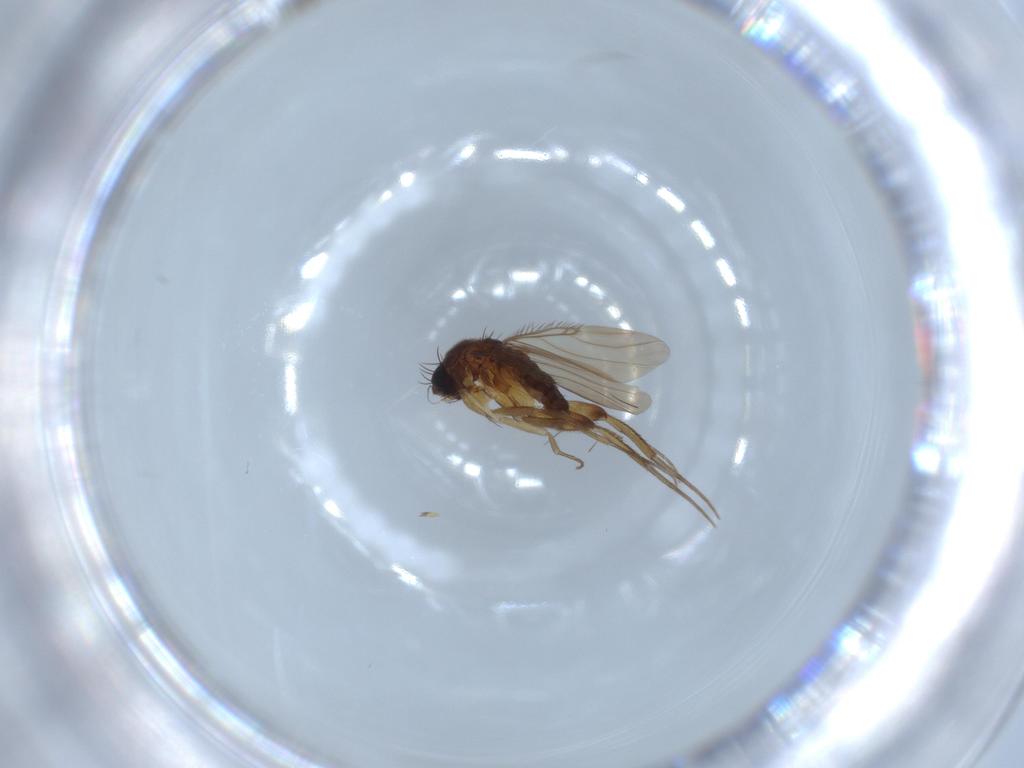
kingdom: Animalia
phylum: Arthropoda
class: Insecta
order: Diptera
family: Phoridae
